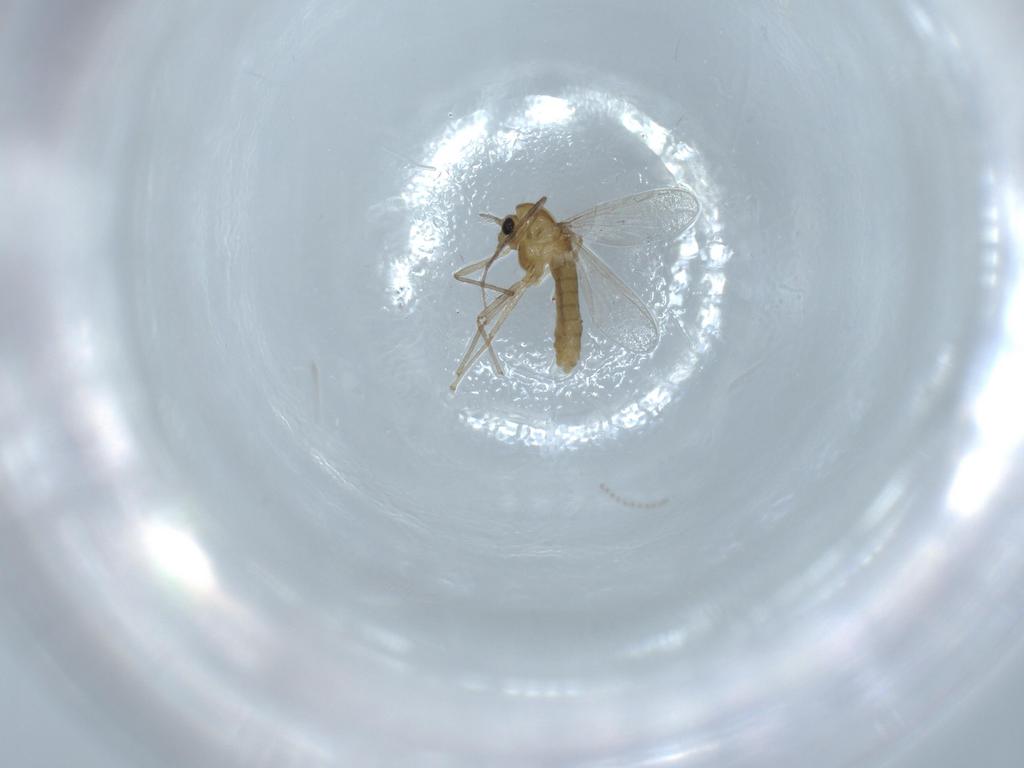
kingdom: Animalia
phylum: Arthropoda
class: Insecta
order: Diptera
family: Chironomidae
